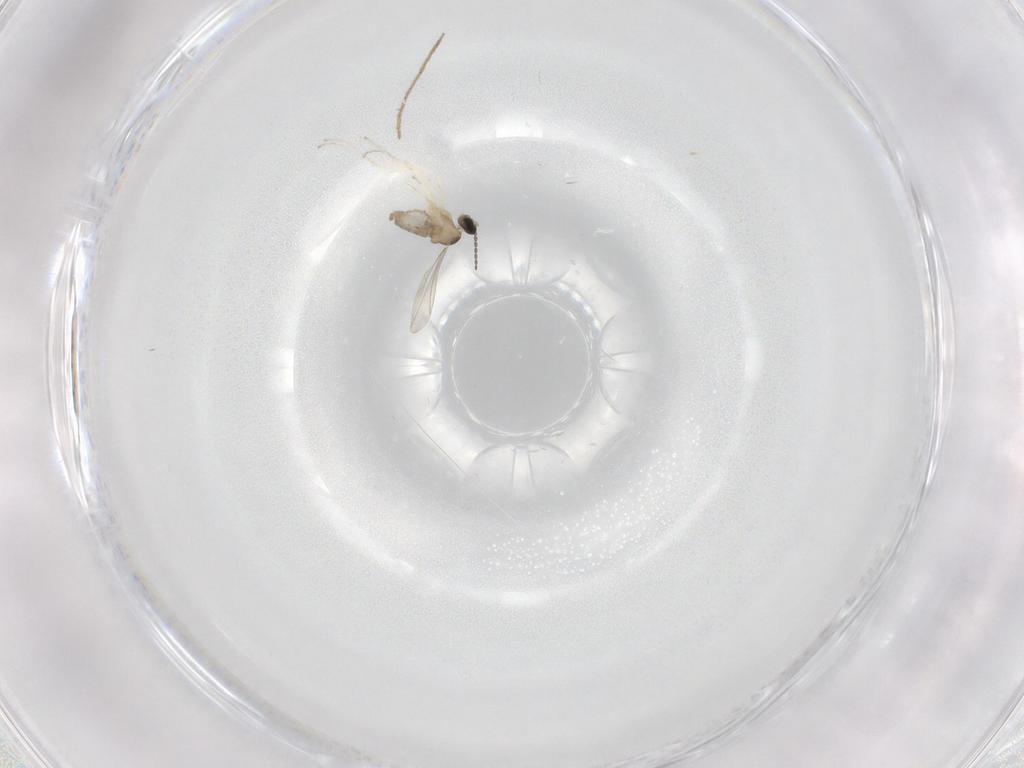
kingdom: Animalia
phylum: Arthropoda
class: Insecta
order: Diptera
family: Cecidomyiidae
